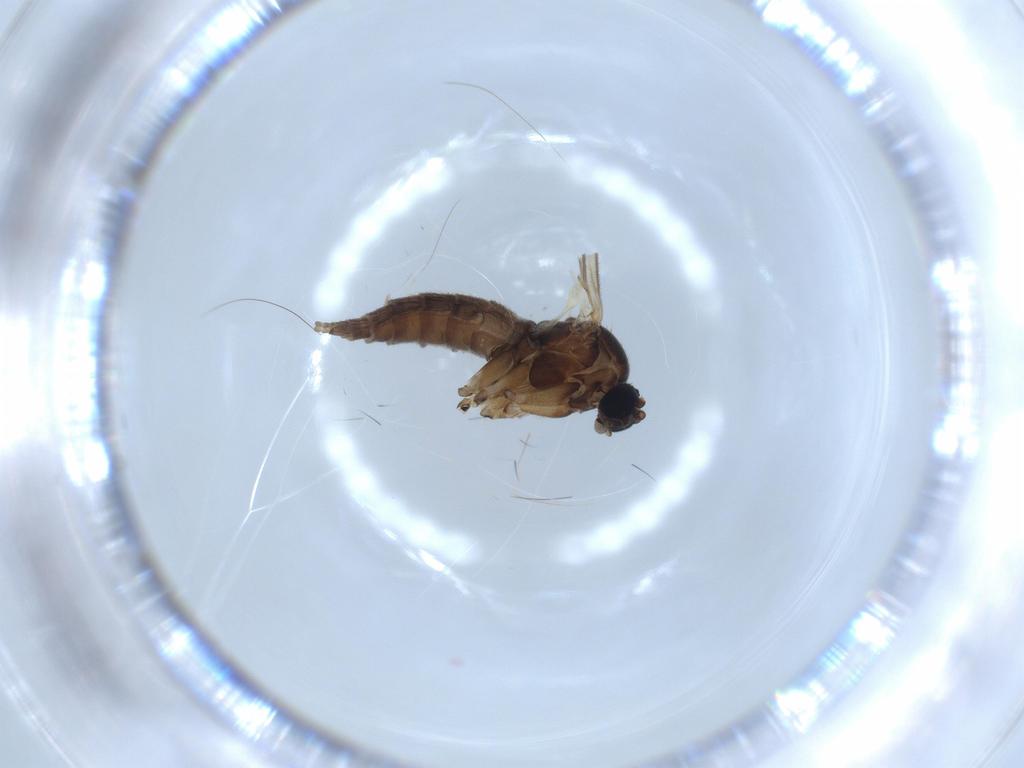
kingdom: Animalia
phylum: Arthropoda
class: Insecta
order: Diptera
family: Sciaridae
